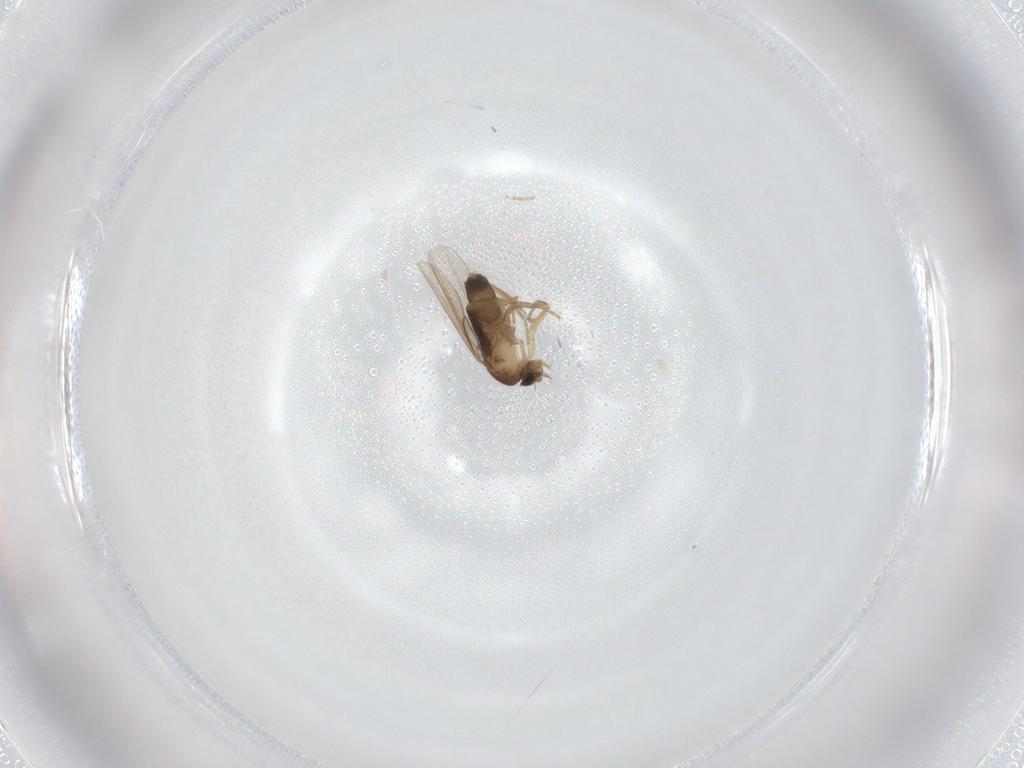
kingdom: Animalia
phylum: Arthropoda
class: Insecta
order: Diptera
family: Phoridae
